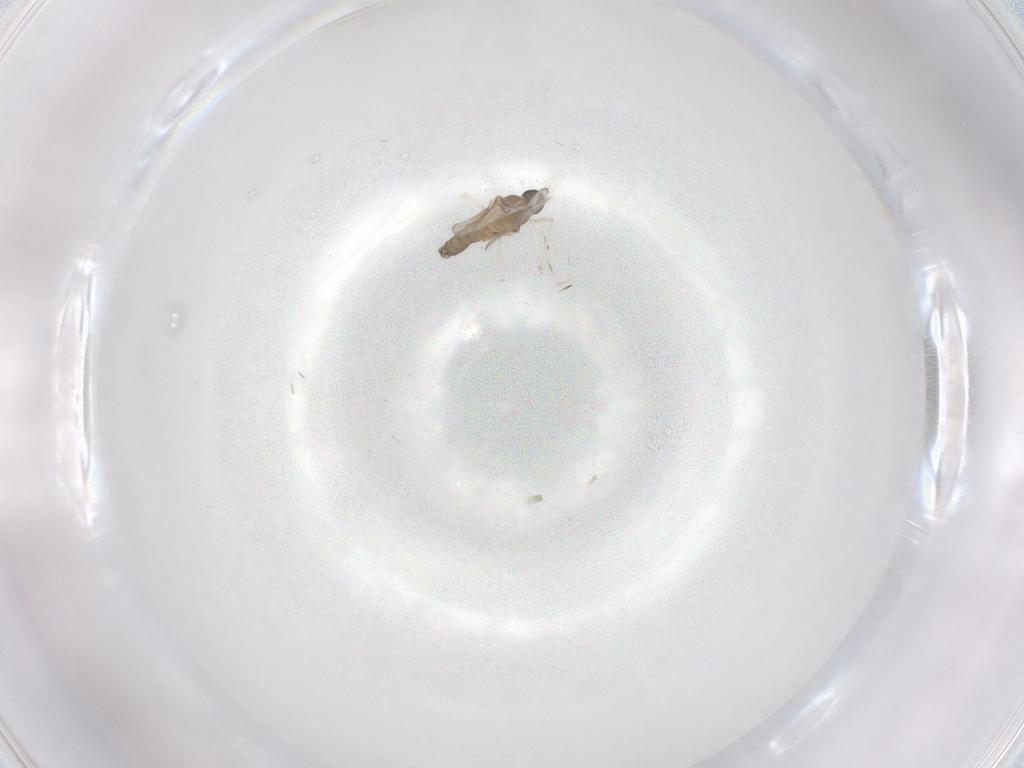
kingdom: Animalia
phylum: Arthropoda
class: Insecta
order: Diptera
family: Cecidomyiidae
